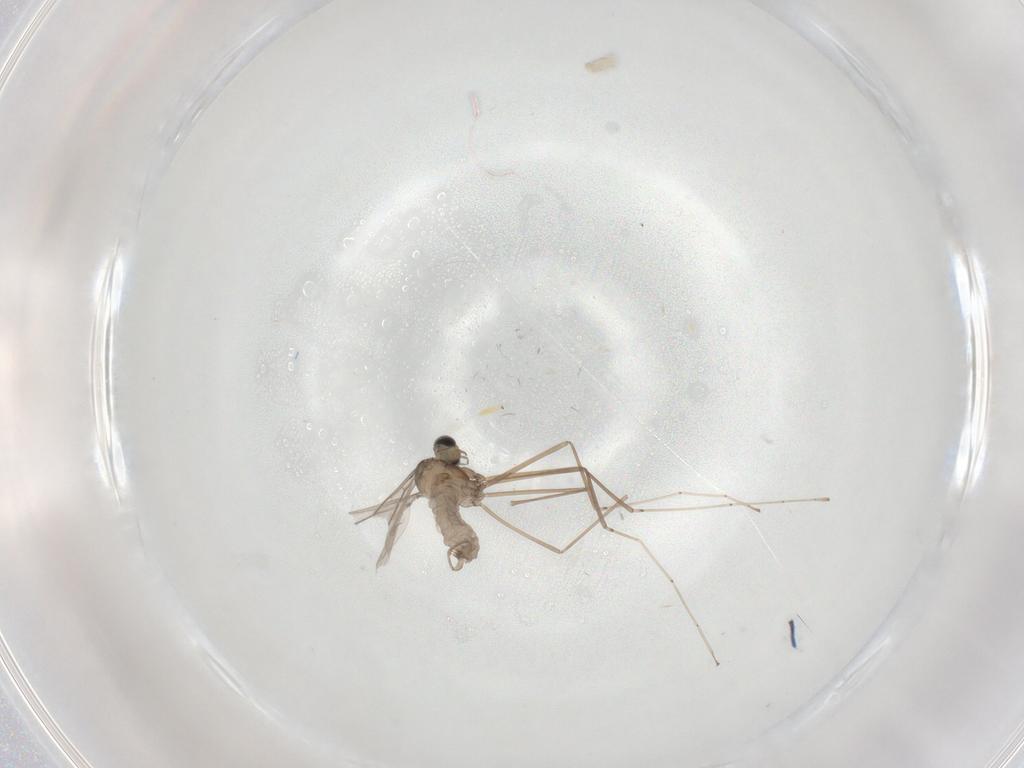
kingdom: Animalia
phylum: Arthropoda
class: Insecta
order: Diptera
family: Cecidomyiidae
